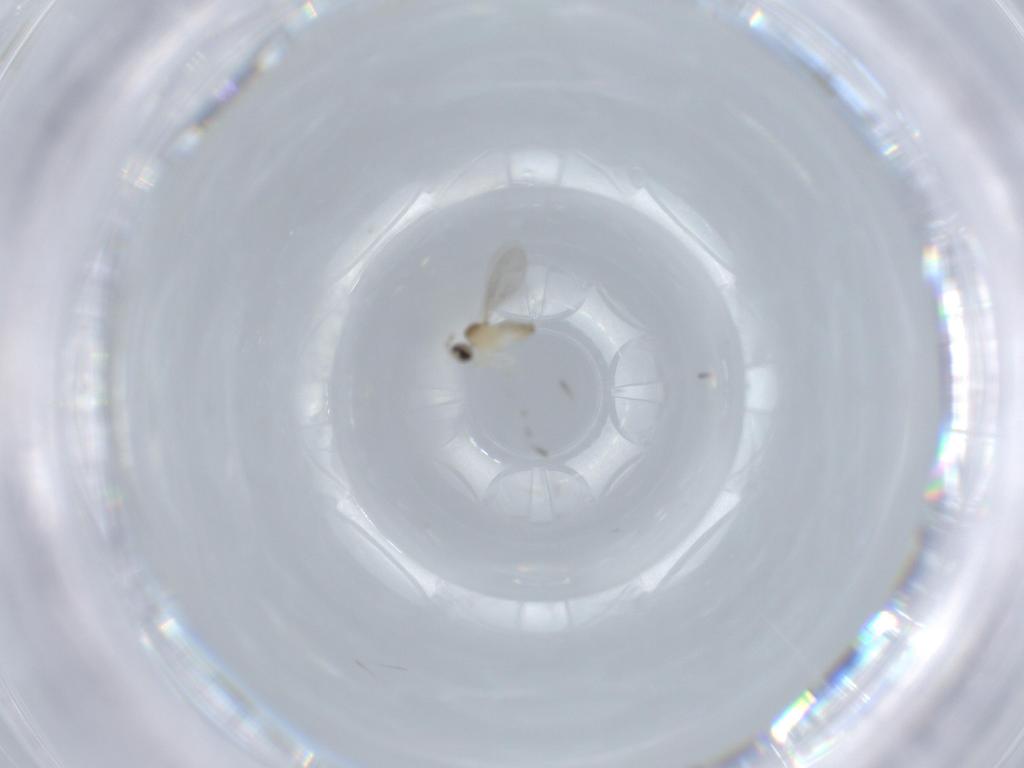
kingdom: Animalia
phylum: Arthropoda
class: Insecta
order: Diptera
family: Cecidomyiidae
